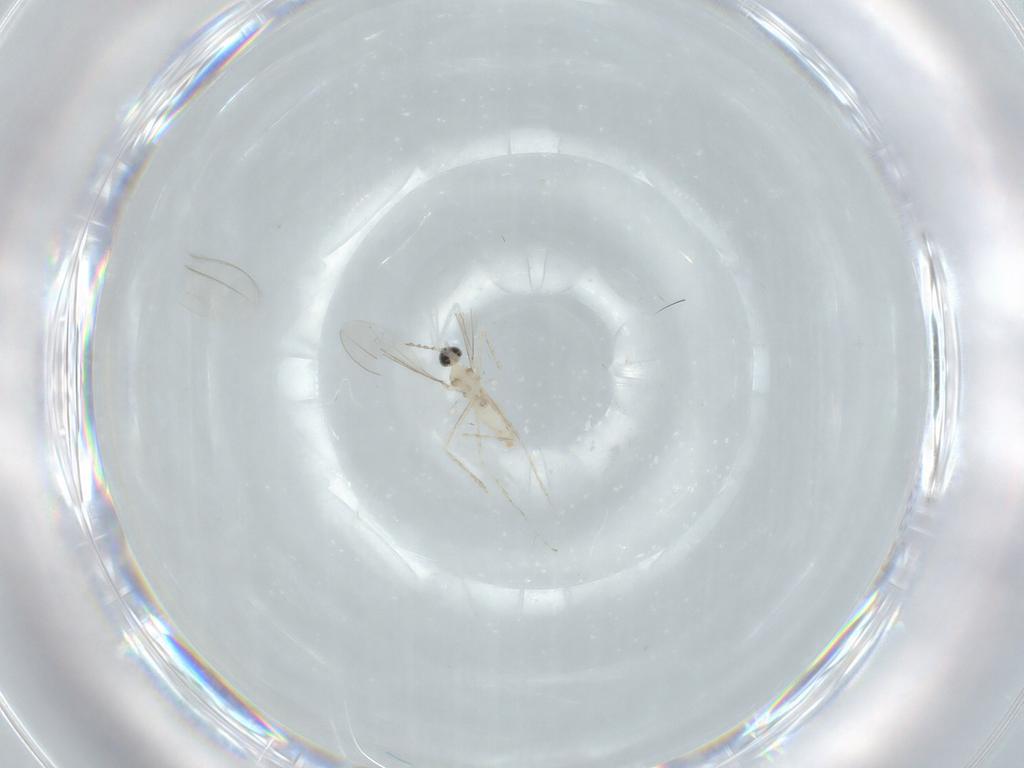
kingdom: Animalia
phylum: Arthropoda
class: Insecta
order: Diptera
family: Cecidomyiidae
